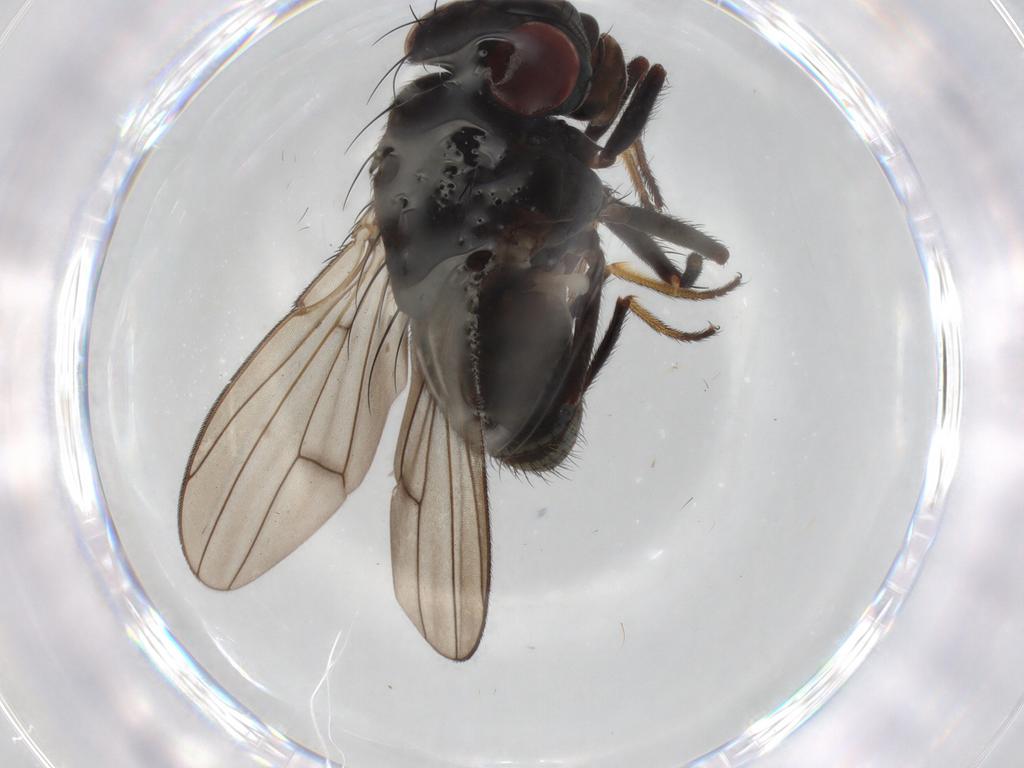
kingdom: Animalia
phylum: Arthropoda
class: Insecta
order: Diptera
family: Ephydridae
